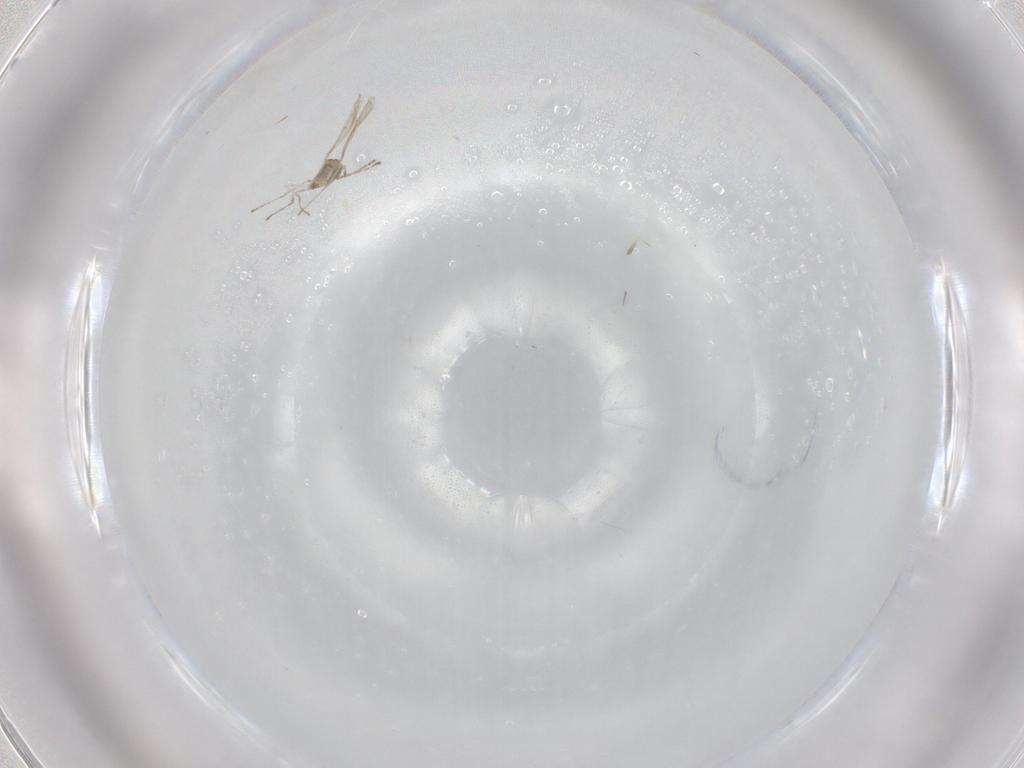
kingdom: Animalia
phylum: Arthropoda
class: Insecta
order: Diptera
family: Cecidomyiidae
